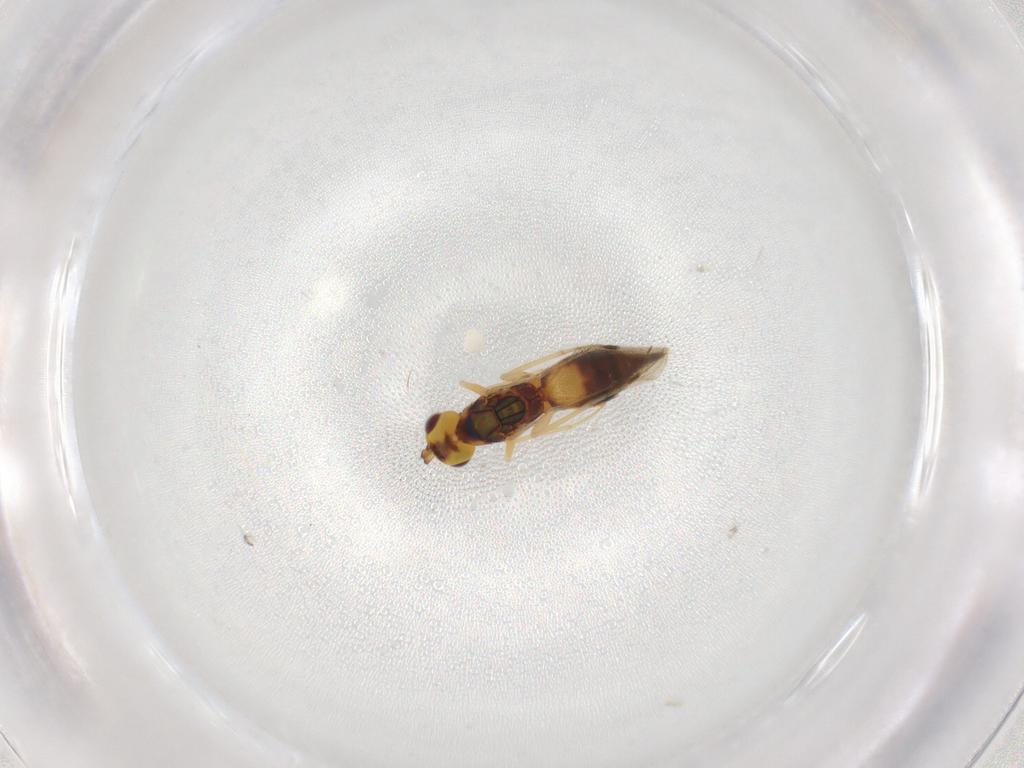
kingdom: Animalia
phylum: Arthropoda
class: Insecta
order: Hymenoptera
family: Eulophidae
